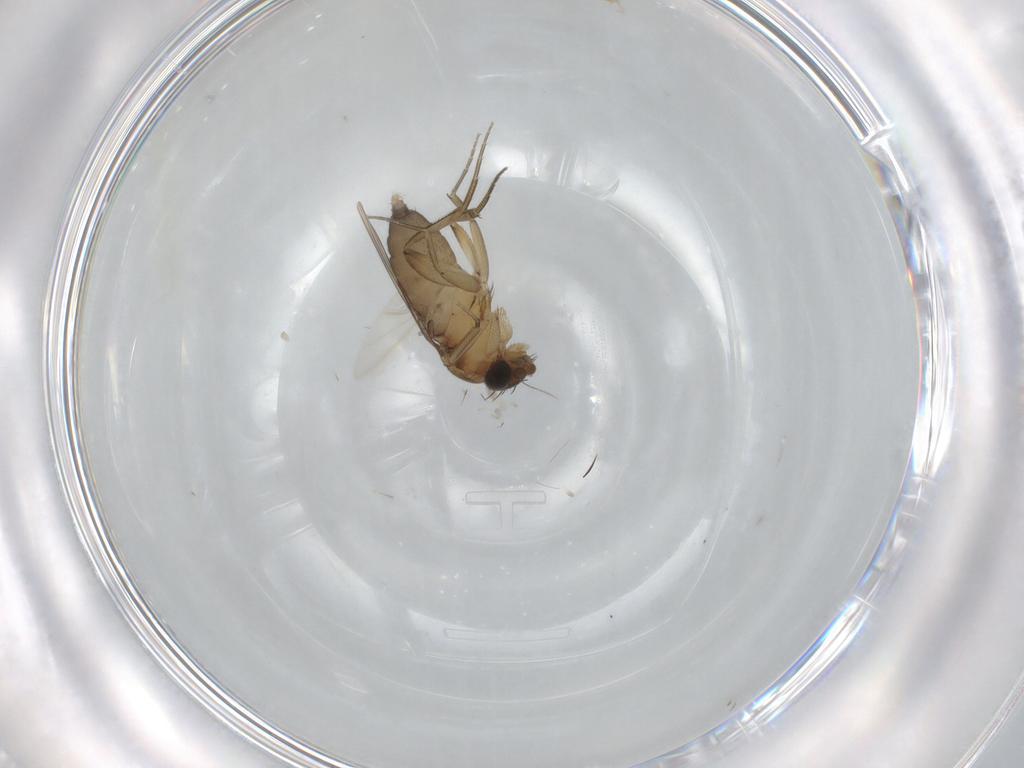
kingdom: Animalia
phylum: Arthropoda
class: Insecta
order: Diptera
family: Phoridae
